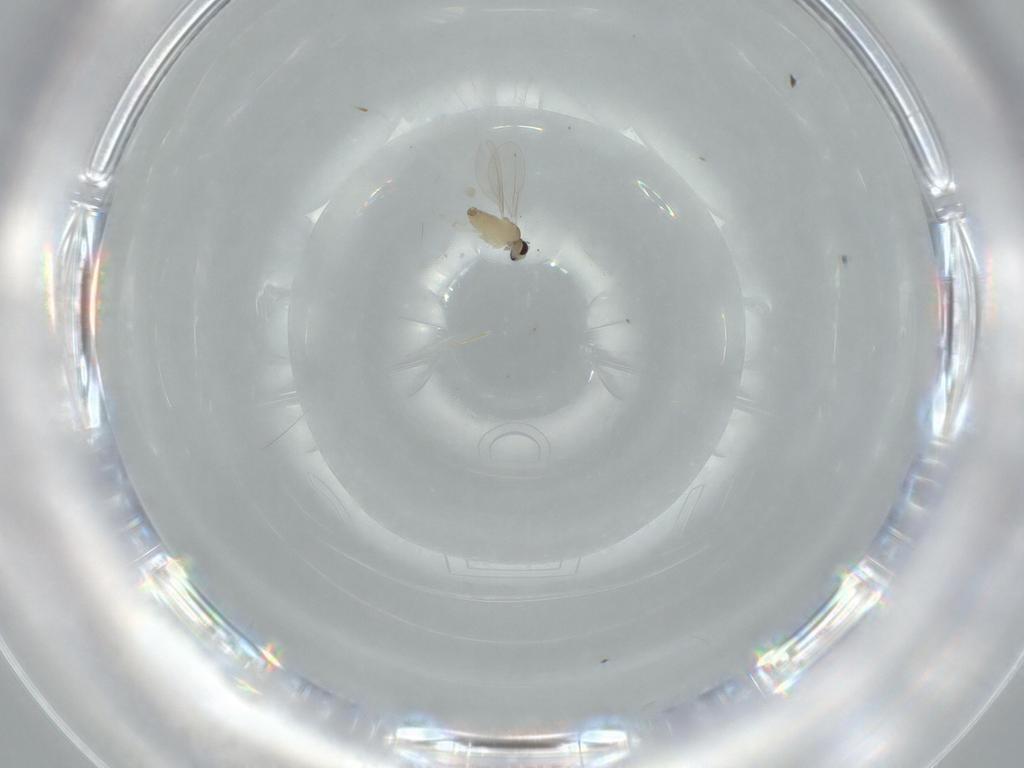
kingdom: Animalia
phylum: Arthropoda
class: Insecta
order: Diptera
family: Cecidomyiidae
